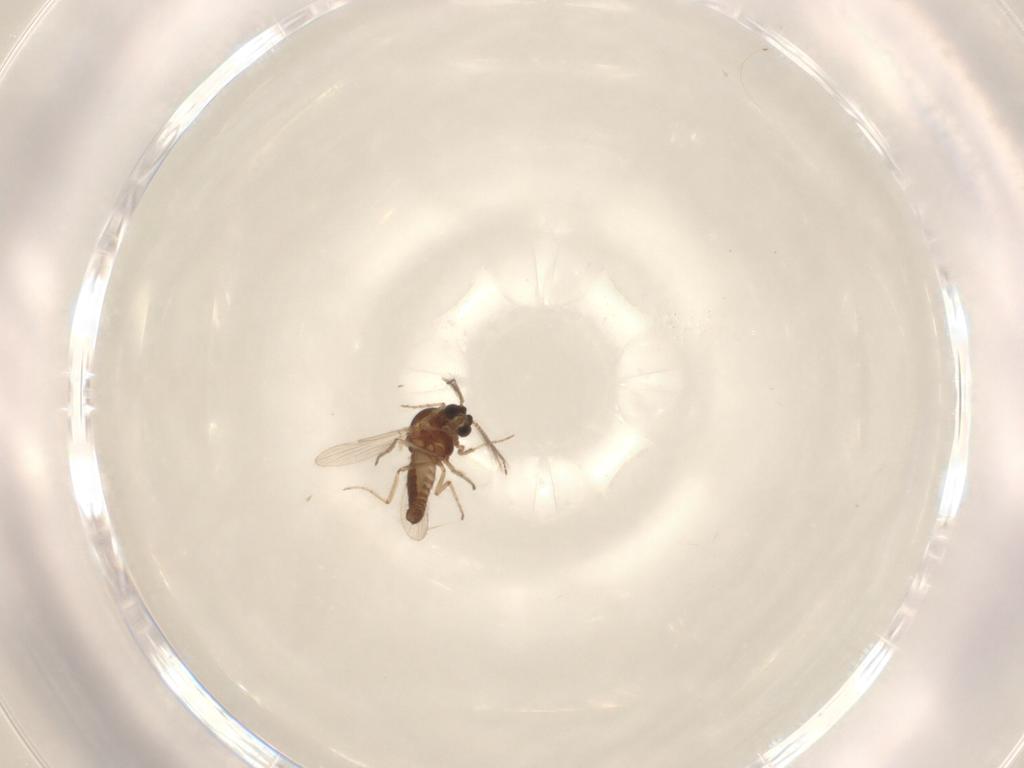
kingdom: Animalia
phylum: Arthropoda
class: Insecta
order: Diptera
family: Ceratopogonidae
